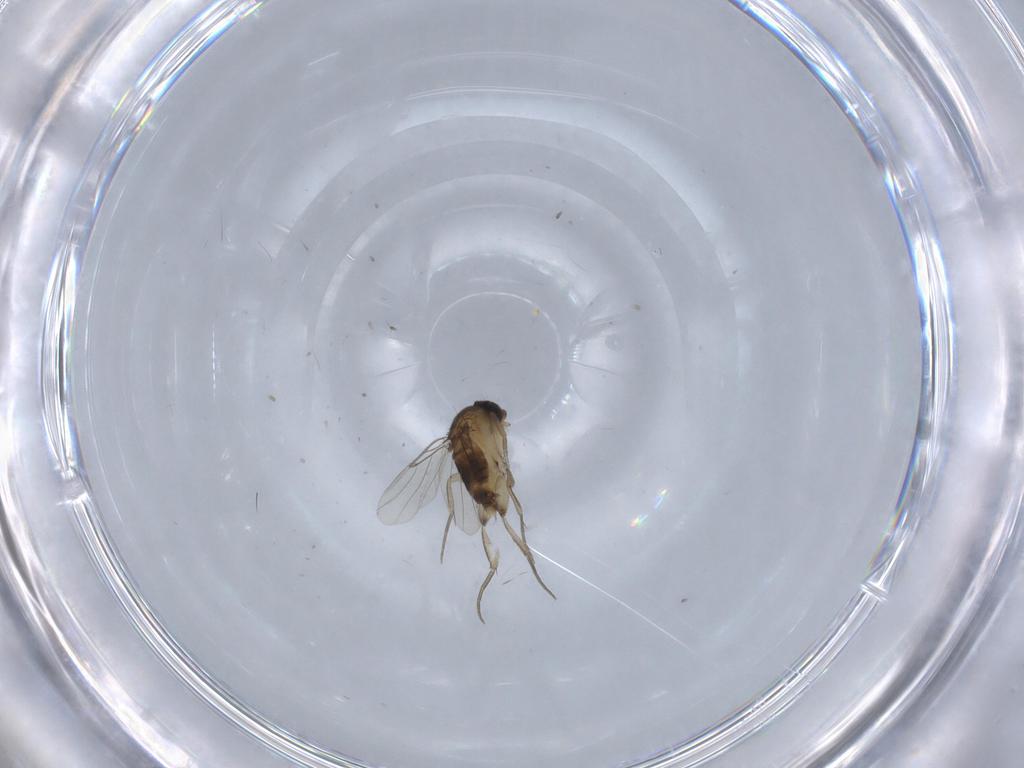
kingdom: Animalia
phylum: Arthropoda
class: Insecta
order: Diptera
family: Phoridae
